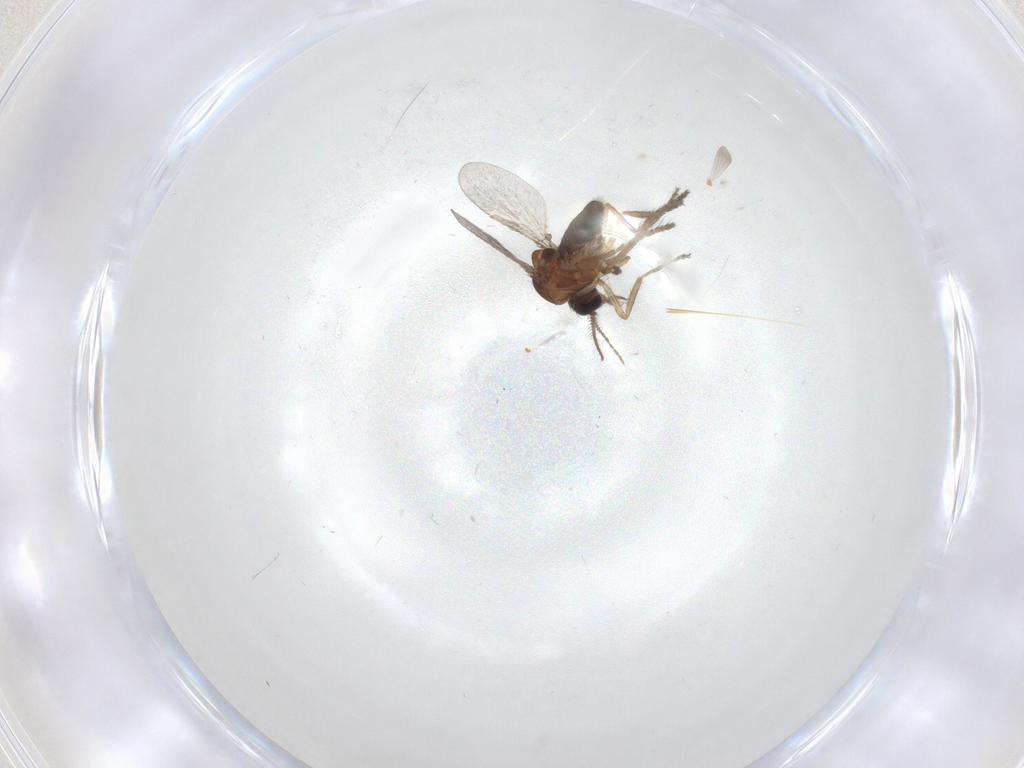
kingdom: Animalia
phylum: Arthropoda
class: Insecta
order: Diptera
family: Ceratopogonidae
